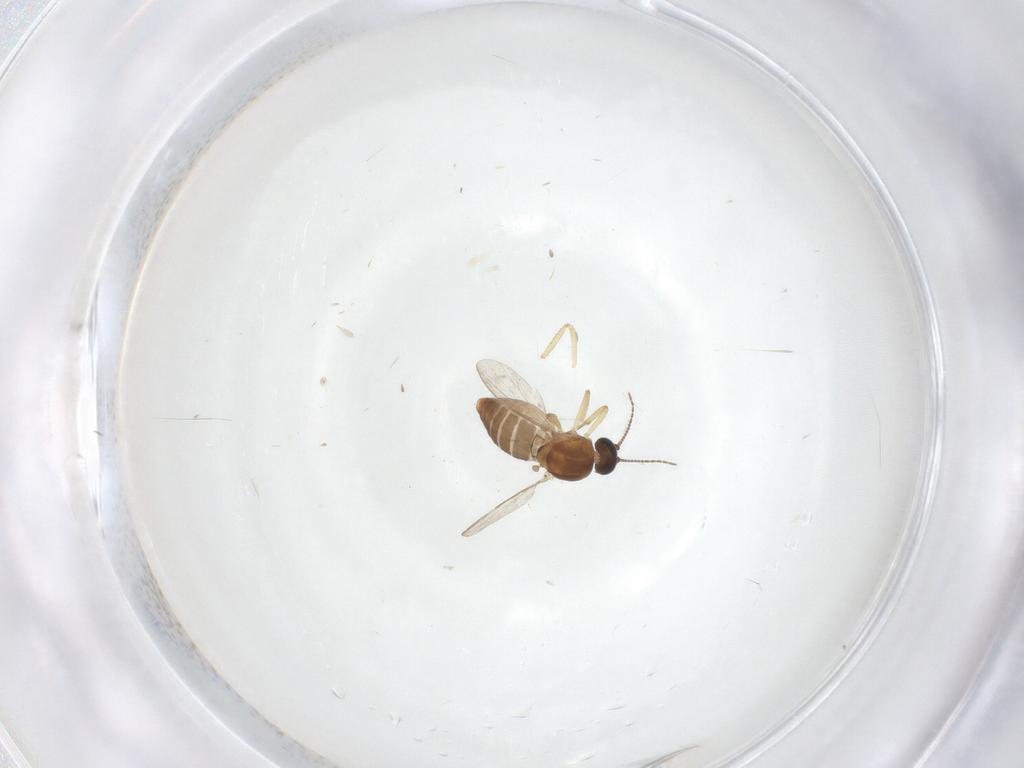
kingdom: Animalia
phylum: Arthropoda
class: Insecta
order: Diptera
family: Ceratopogonidae
